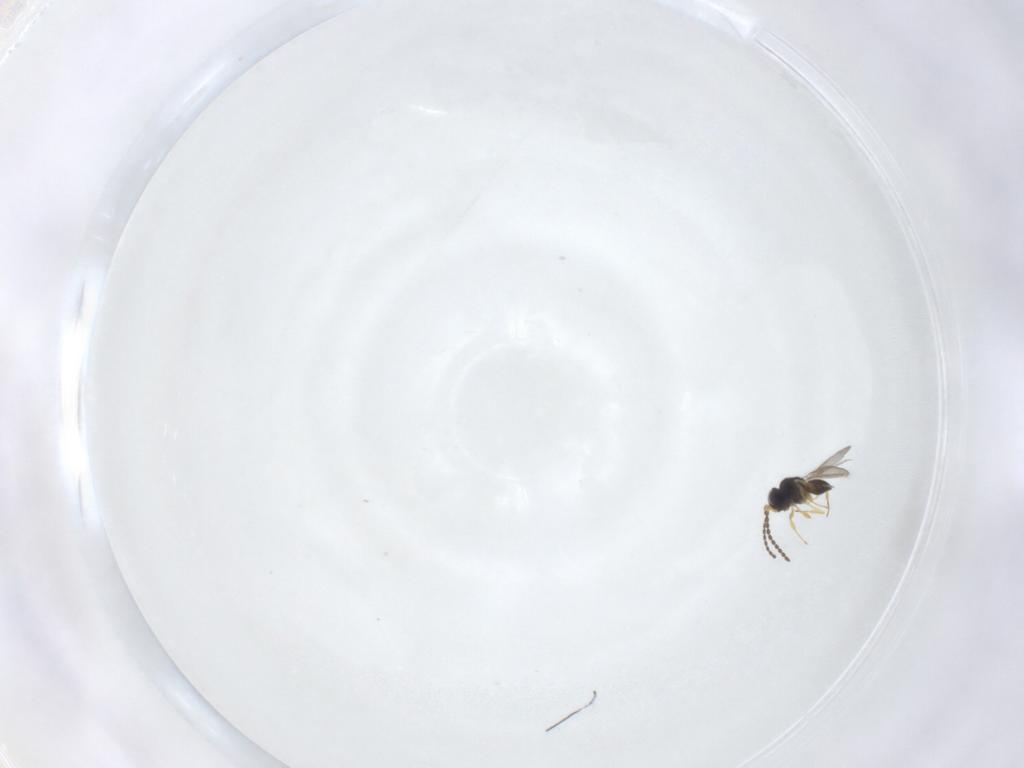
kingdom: Animalia
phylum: Arthropoda
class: Insecta
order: Hymenoptera
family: Scelionidae
